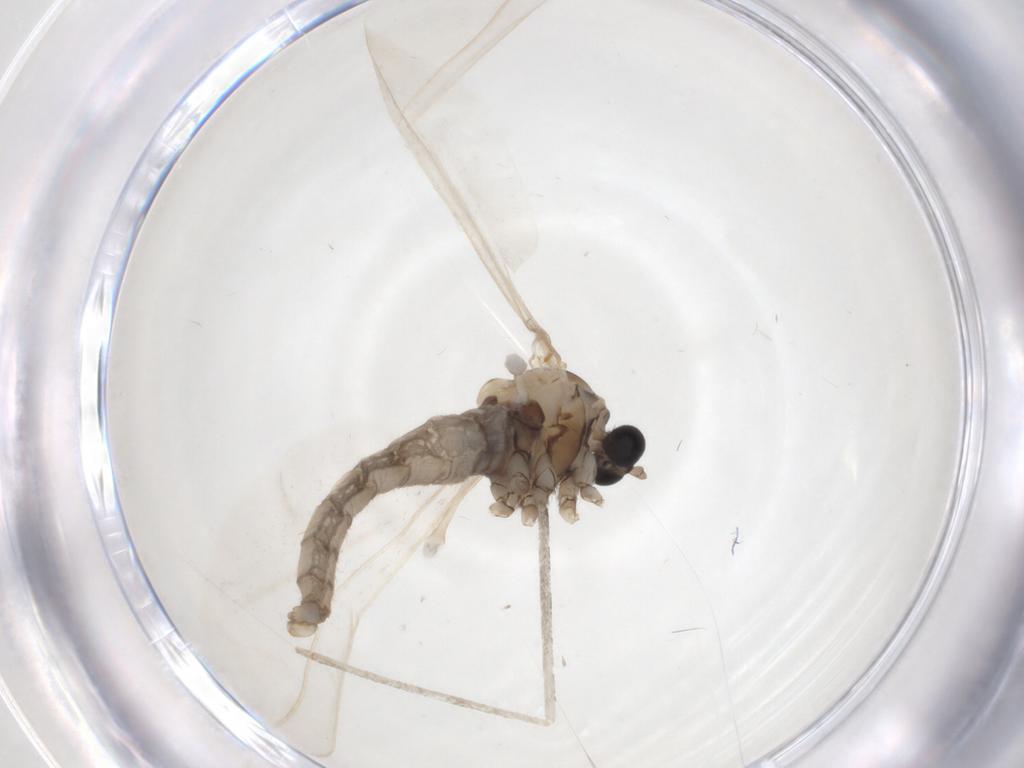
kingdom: Animalia
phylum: Arthropoda
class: Insecta
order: Diptera
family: Cecidomyiidae
